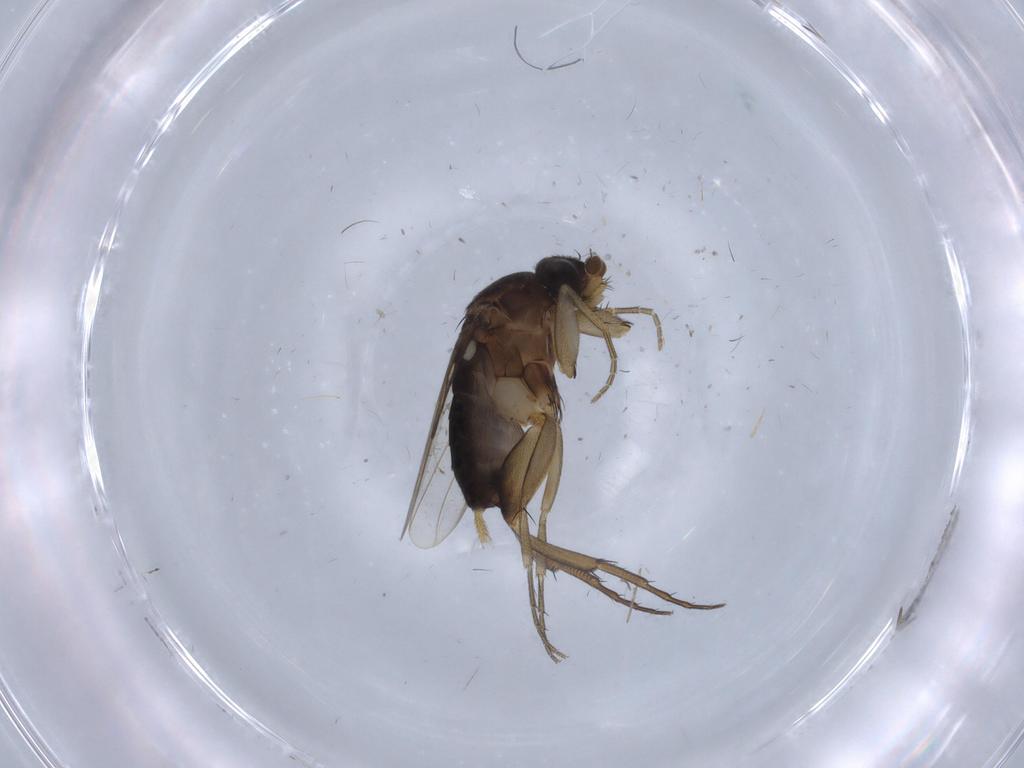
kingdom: Animalia
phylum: Arthropoda
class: Insecta
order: Diptera
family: Phoridae
